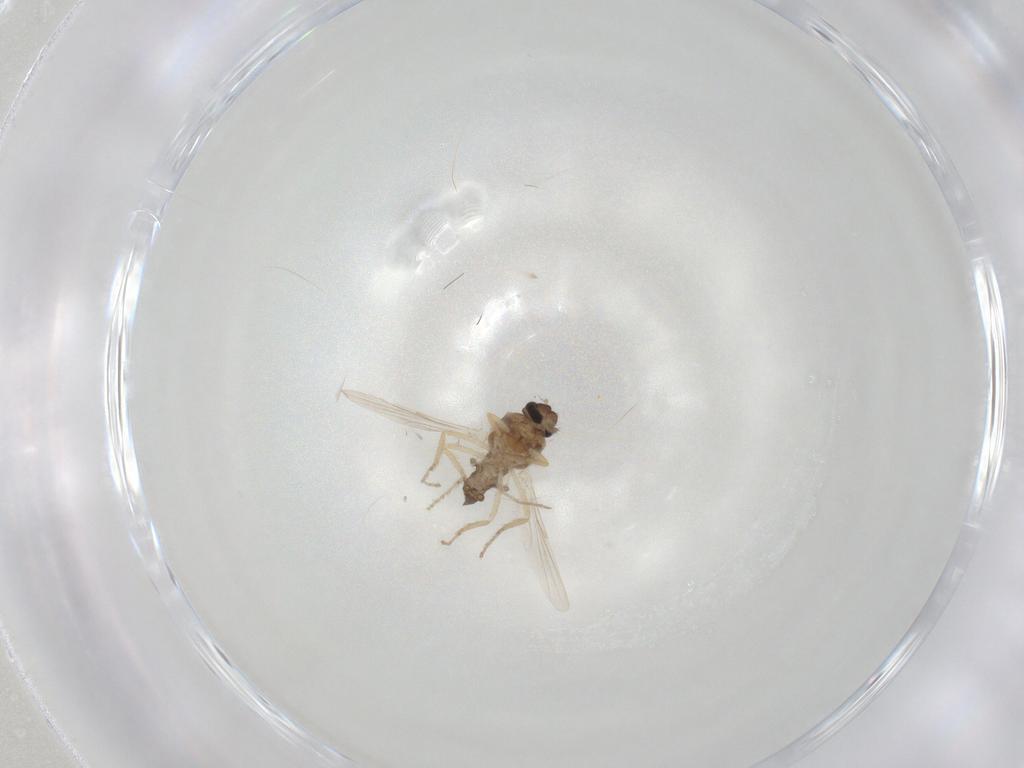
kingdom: Animalia
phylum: Arthropoda
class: Insecta
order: Diptera
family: Ceratopogonidae
